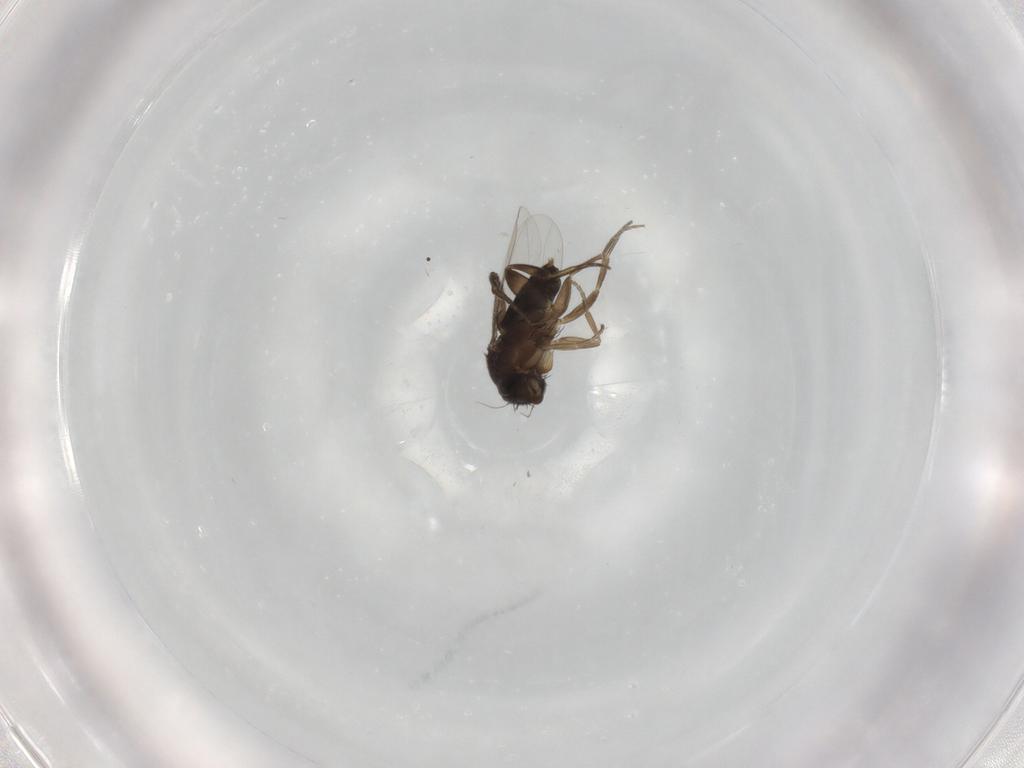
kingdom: Animalia
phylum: Arthropoda
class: Insecta
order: Diptera
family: Phoridae
